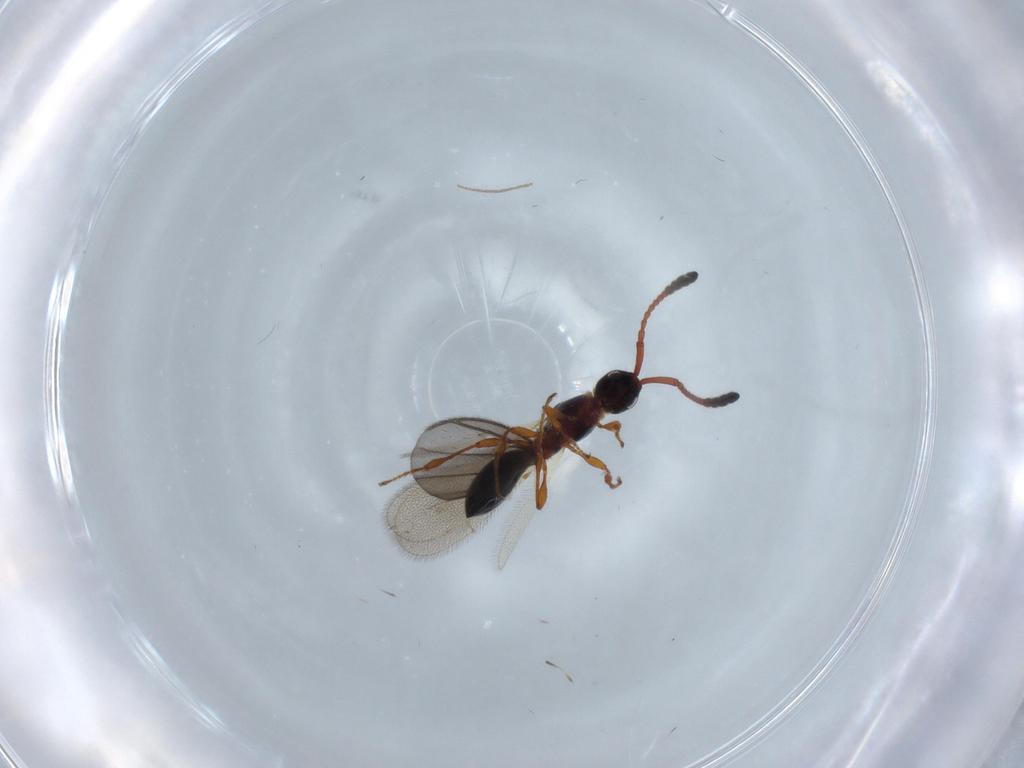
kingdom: Animalia
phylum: Arthropoda
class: Insecta
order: Hymenoptera
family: Diapriidae
